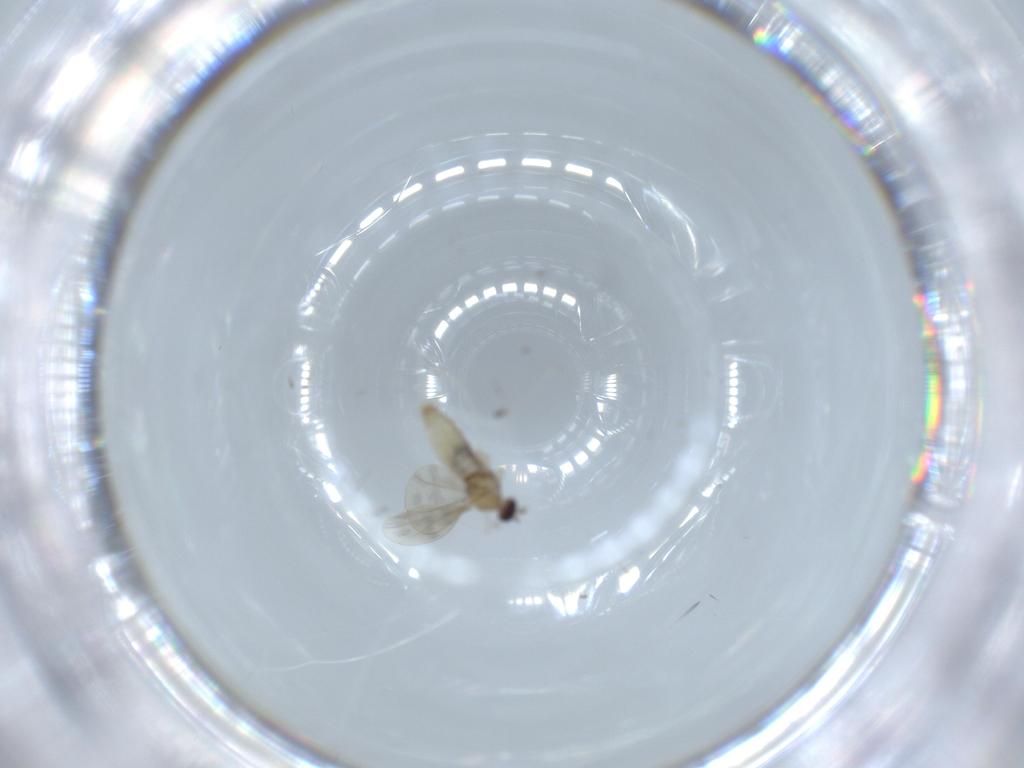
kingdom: Animalia
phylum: Arthropoda
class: Insecta
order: Diptera
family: Cecidomyiidae
